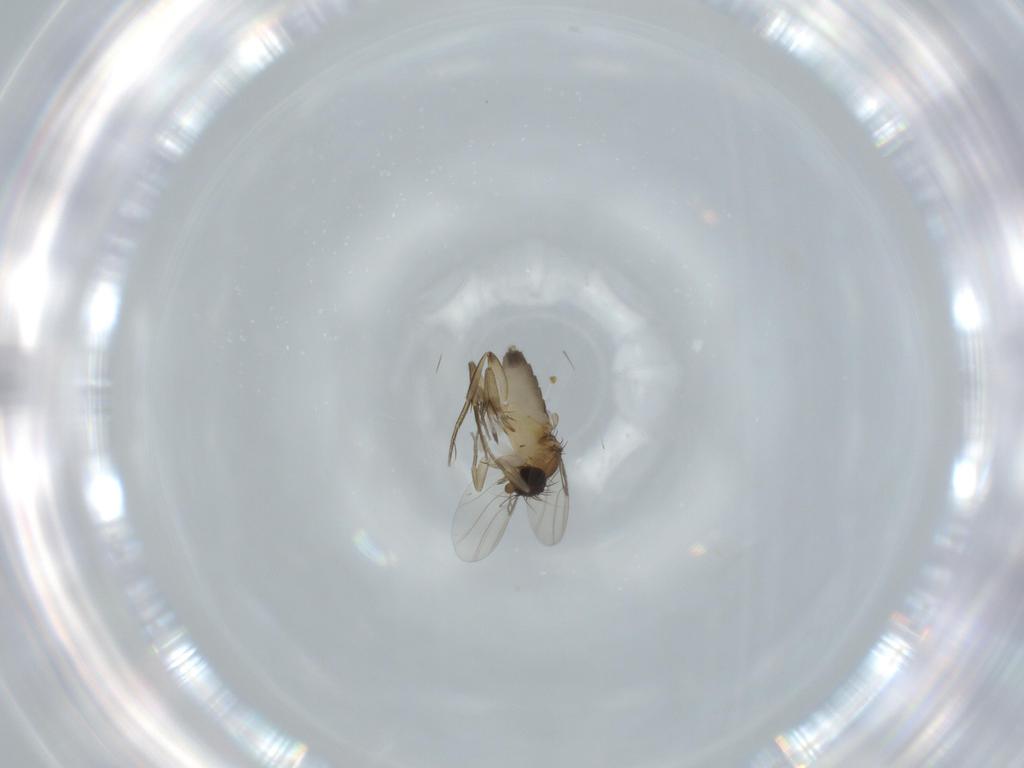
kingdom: Animalia
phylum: Arthropoda
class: Insecta
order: Diptera
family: Phoridae
